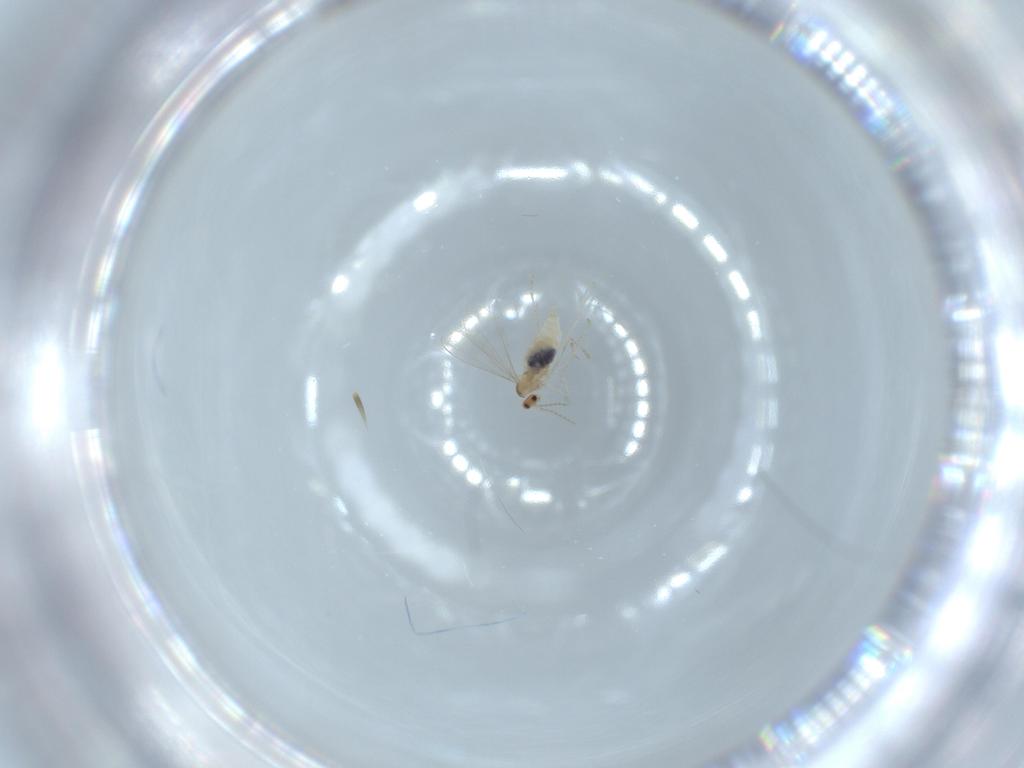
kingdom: Animalia
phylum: Arthropoda
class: Insecta
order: Diptera
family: Cecidomyiidae
